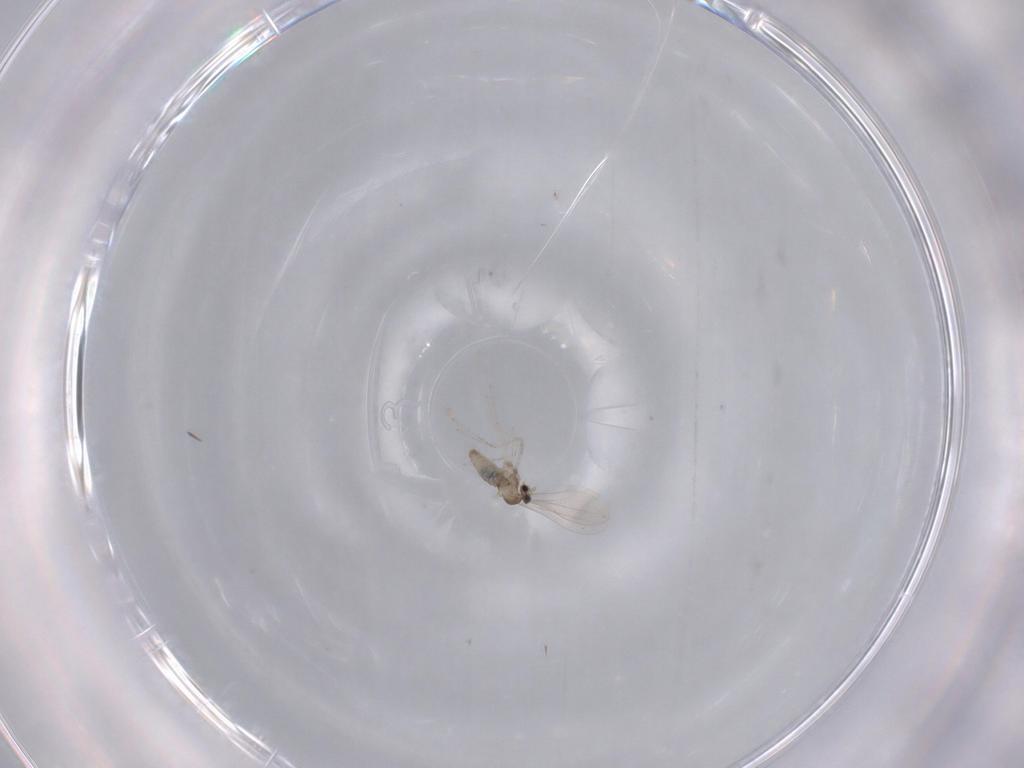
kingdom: Animalia
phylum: Arthropoda
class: Insecta
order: Diptera
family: Cecidomyiidae
